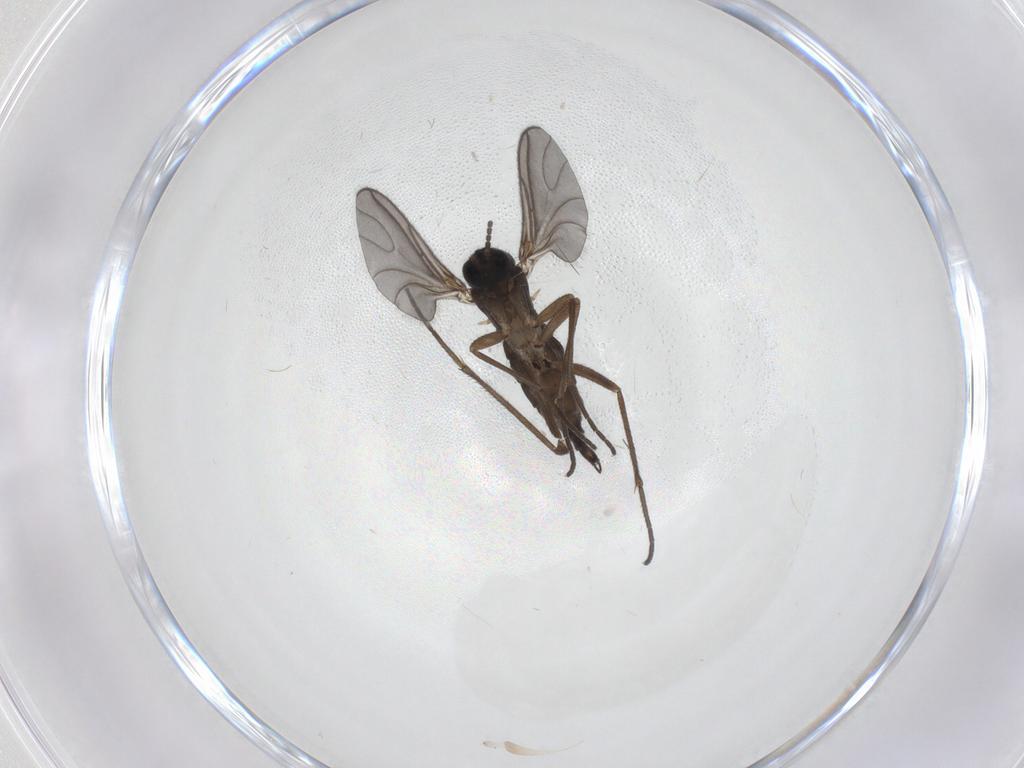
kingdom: Animalia
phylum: Arthropoda
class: Insecta
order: Diptera
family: Sciaridae
